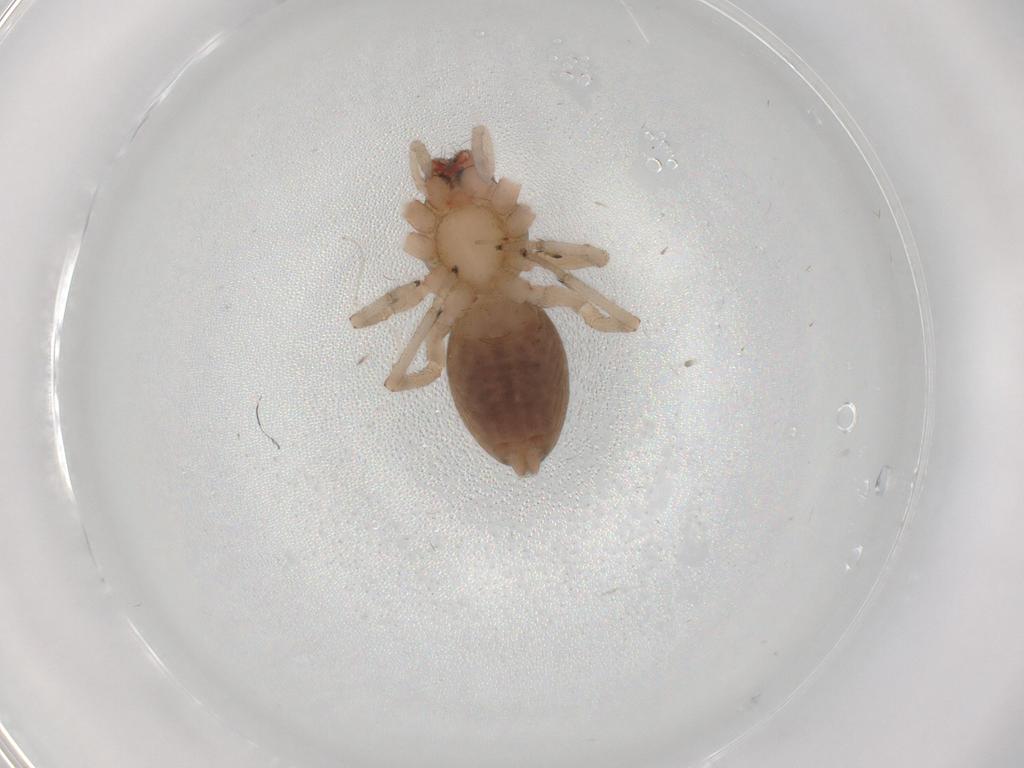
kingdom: Animalia
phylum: Arthropoda
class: Arachnida
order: Araneae
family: Trachelidae
